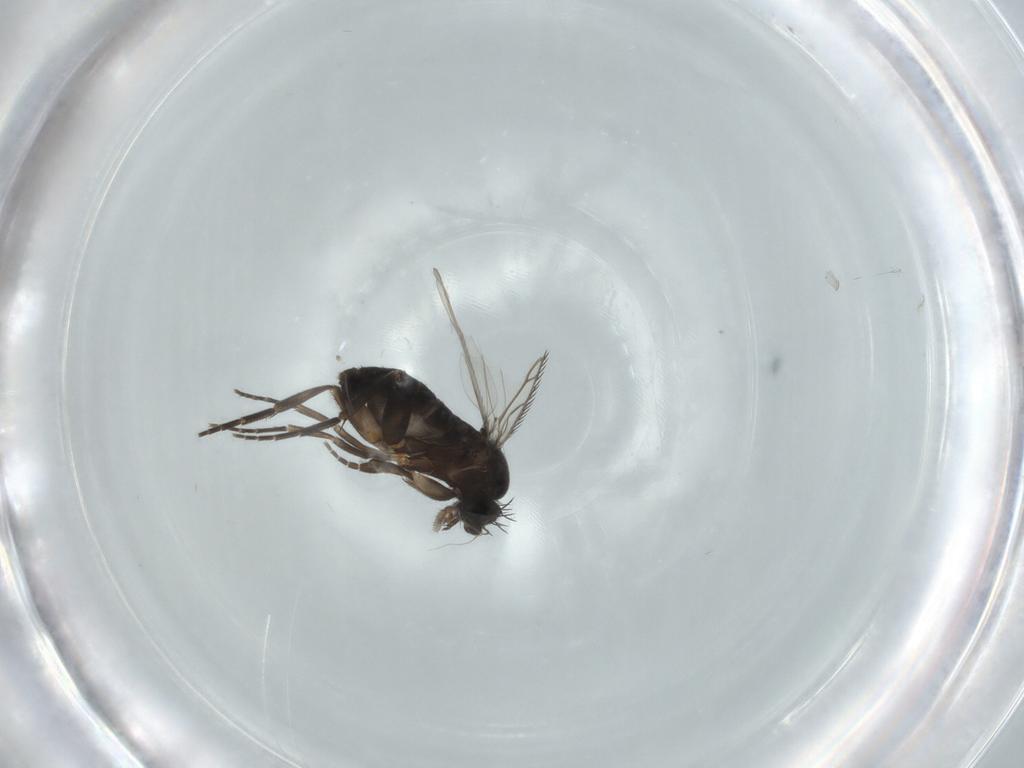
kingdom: Animalia
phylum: Arthropoda
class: Insecta
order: Diptera
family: Phoridae
